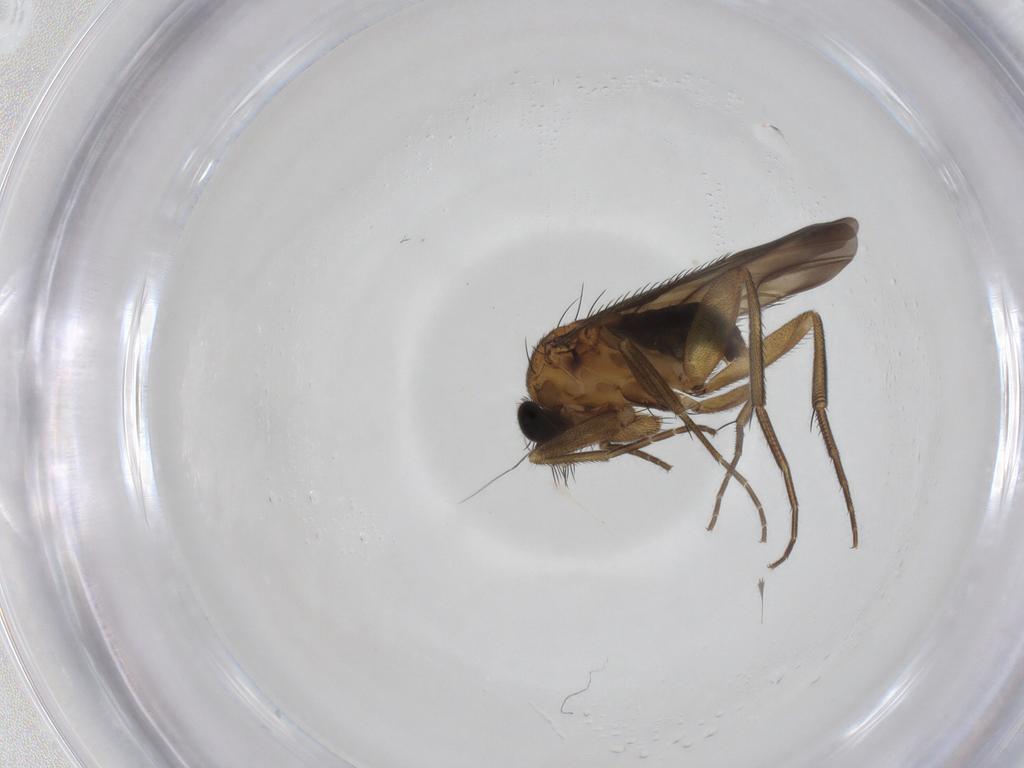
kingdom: Animalia
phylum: Arthropoda
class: Insecta
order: Diptera
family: Phoridae
